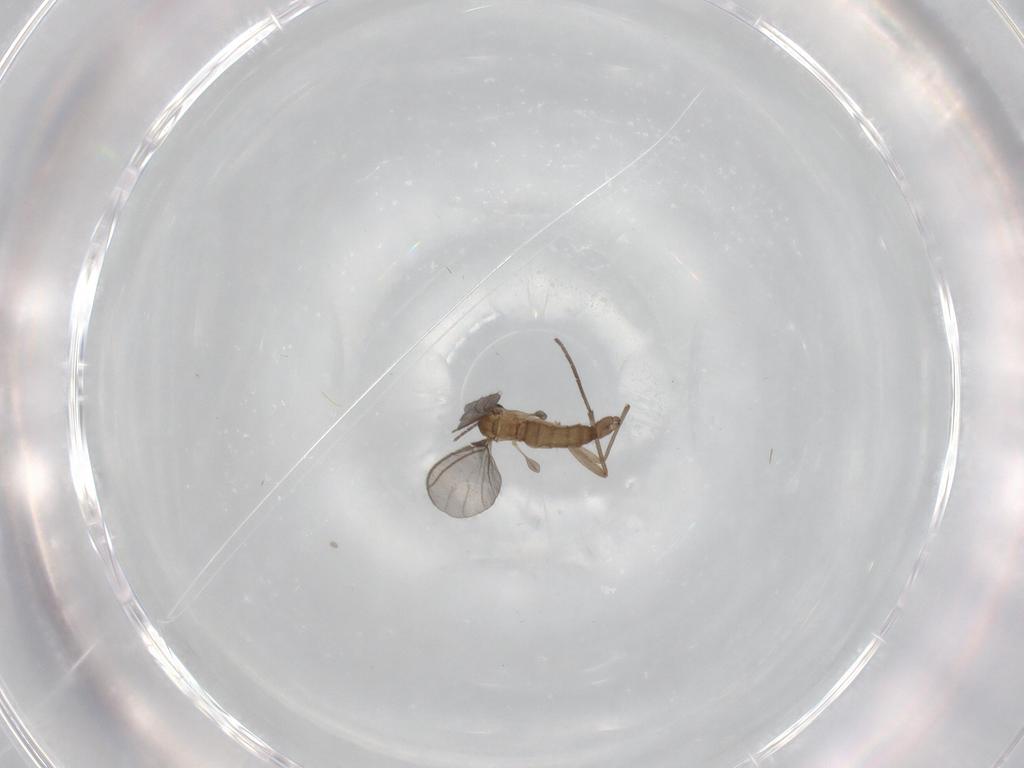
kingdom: Animalia
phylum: Arthropoda
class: Insecta
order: Diptera
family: Sciaridae
